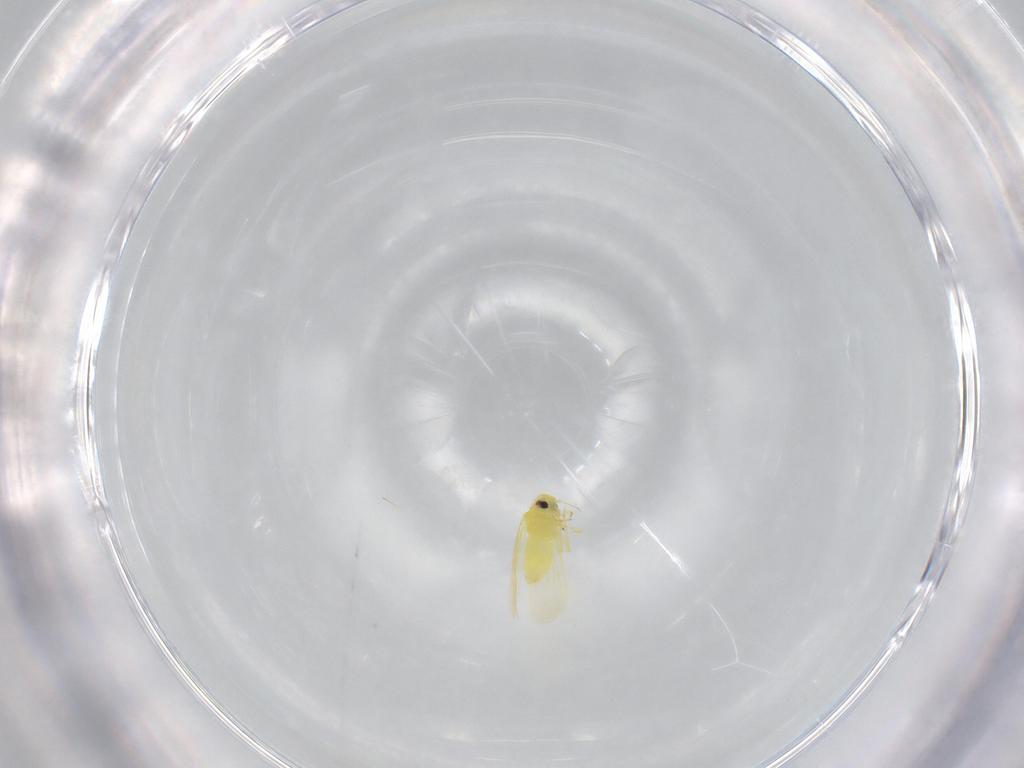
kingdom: Animalia
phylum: Arthropoda
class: Insecta
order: Hemiptera
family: Aleyrodidae
